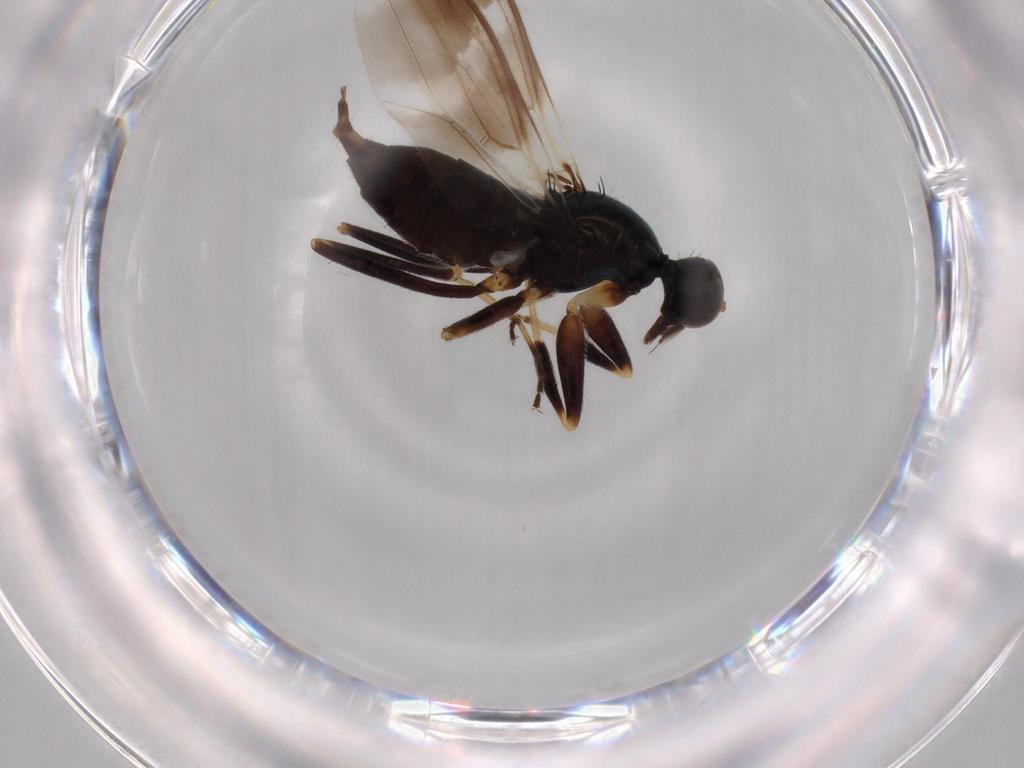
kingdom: Animalia
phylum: Arthropoda
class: Insecta
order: Diptera
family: Hybotidae
